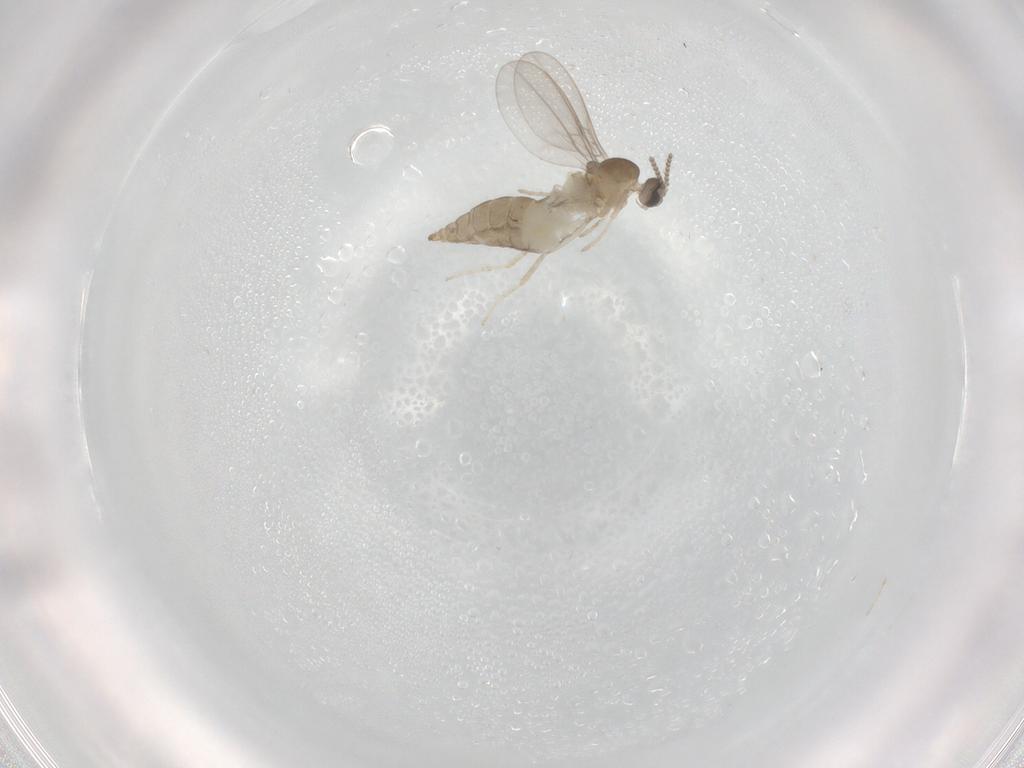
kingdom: Animalia
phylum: Arthropoda
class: Insecta
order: Diptera
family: Cecidomyiidae
